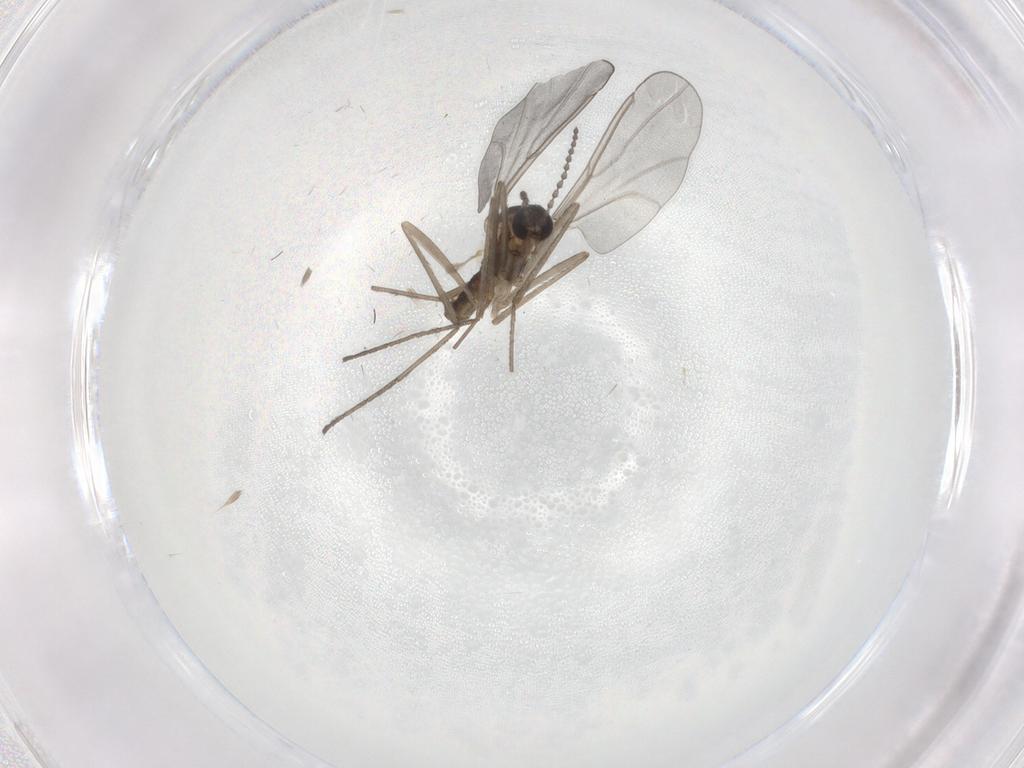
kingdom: Animalia
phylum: Arthropoda
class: Insecta
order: Diptera
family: Cecidomyiidae
